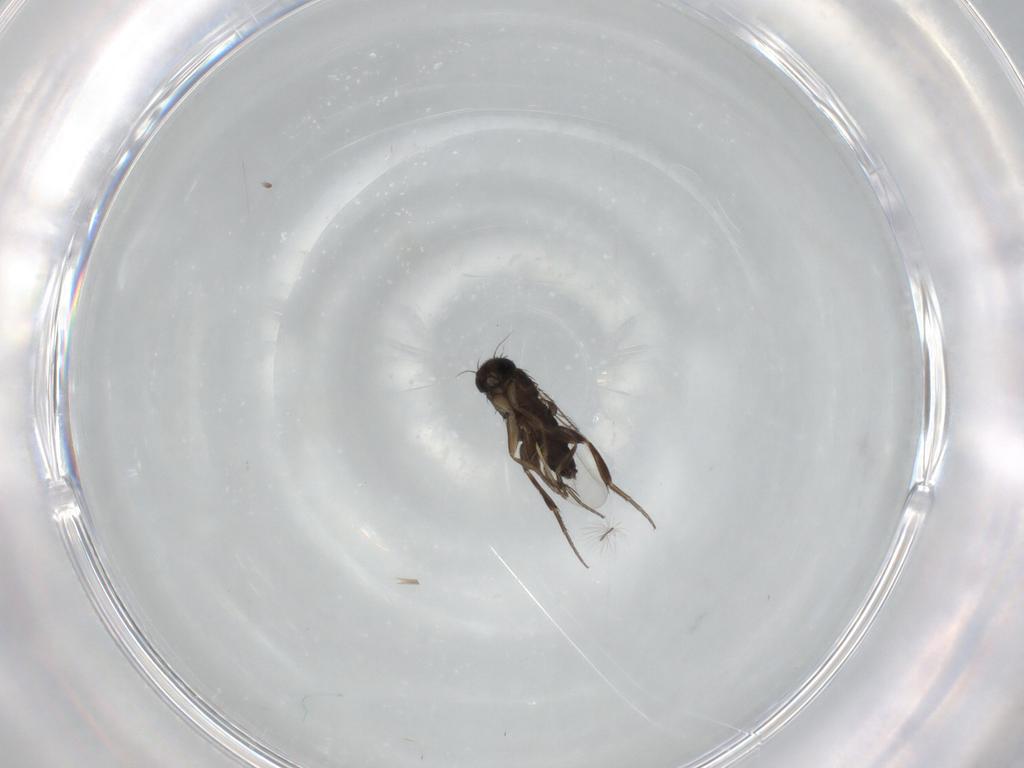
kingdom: Animalia
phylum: Arthropoda
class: Insecta
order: Diptera
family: Phoridae
